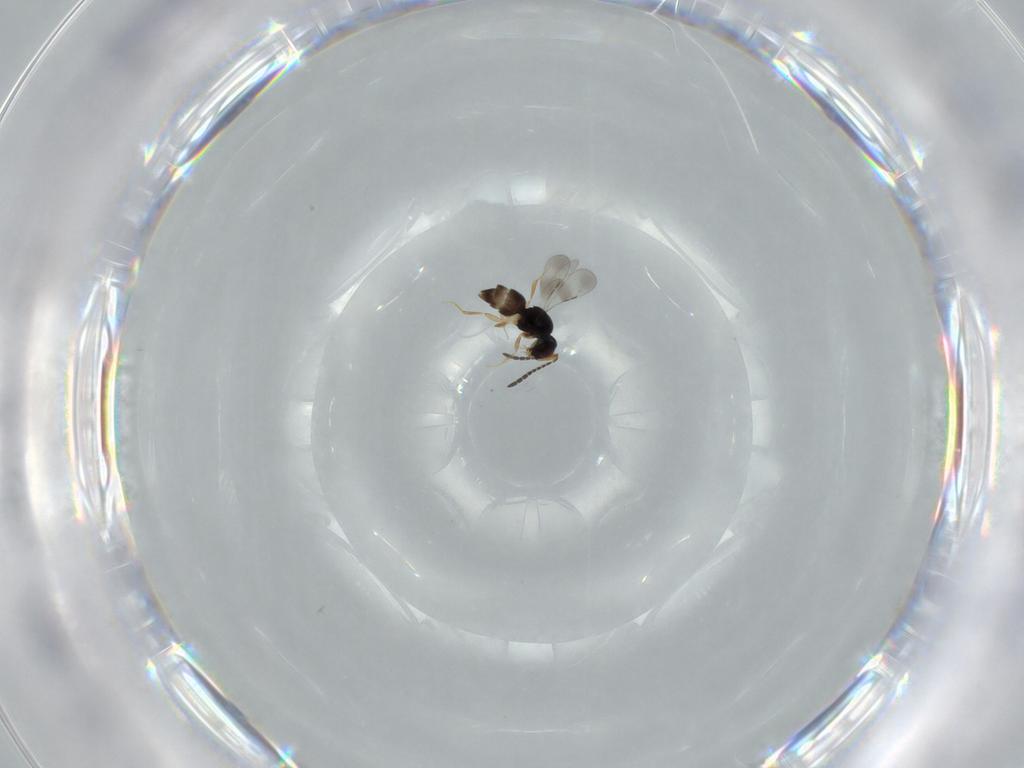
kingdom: Animalia
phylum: Arthropoda
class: Insecta
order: Hymenoptera
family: Ceraphronidae
